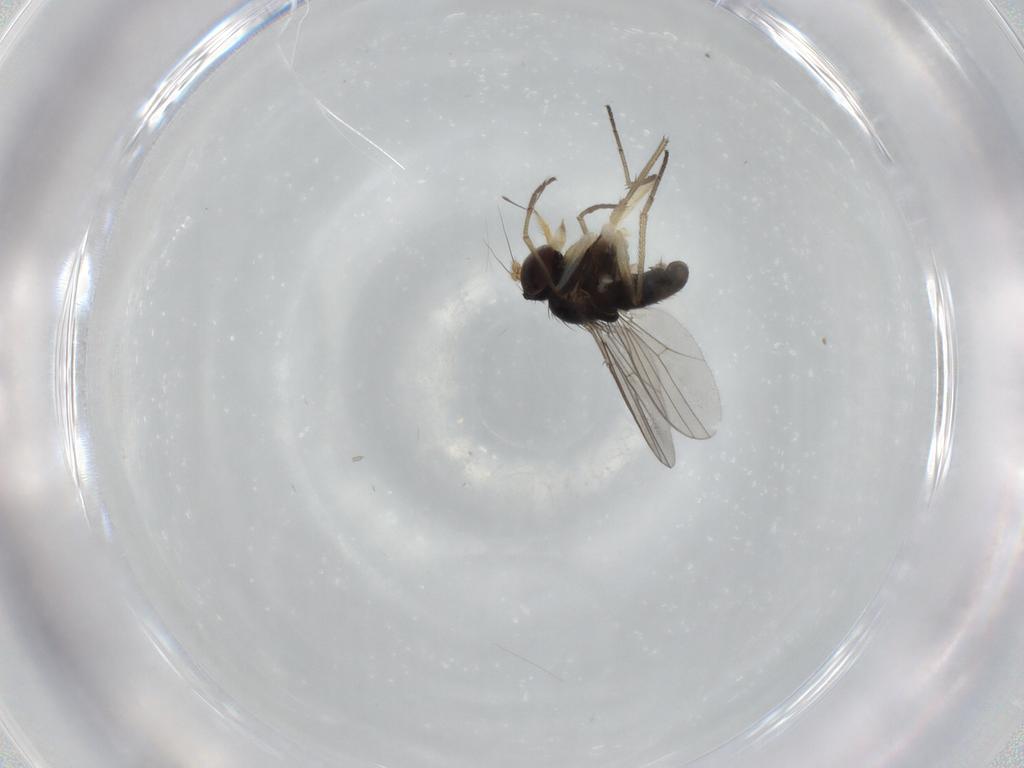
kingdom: Animalia
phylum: Arthropoda
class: Insecta
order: Diptera
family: Dolichopodidae
